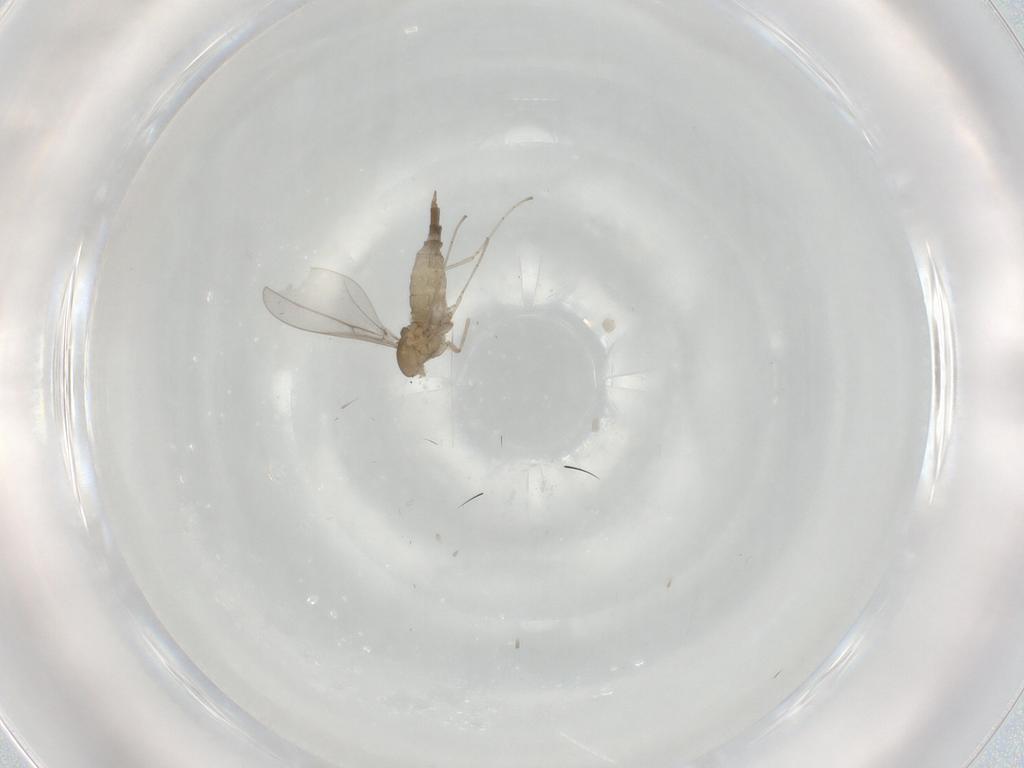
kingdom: Animalia
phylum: Arthropoda
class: Insecta
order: Diptera
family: Cecidomyiidae
